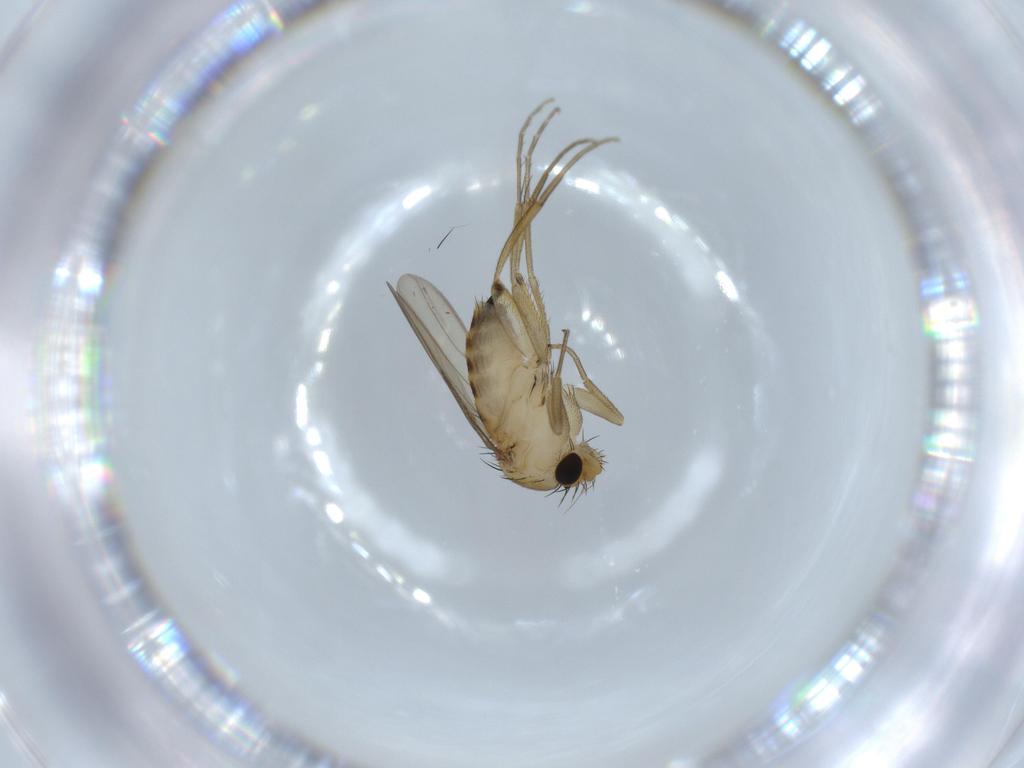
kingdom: Animalia
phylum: Arthropoda
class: Insecta
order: Diptera
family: Phoridae
